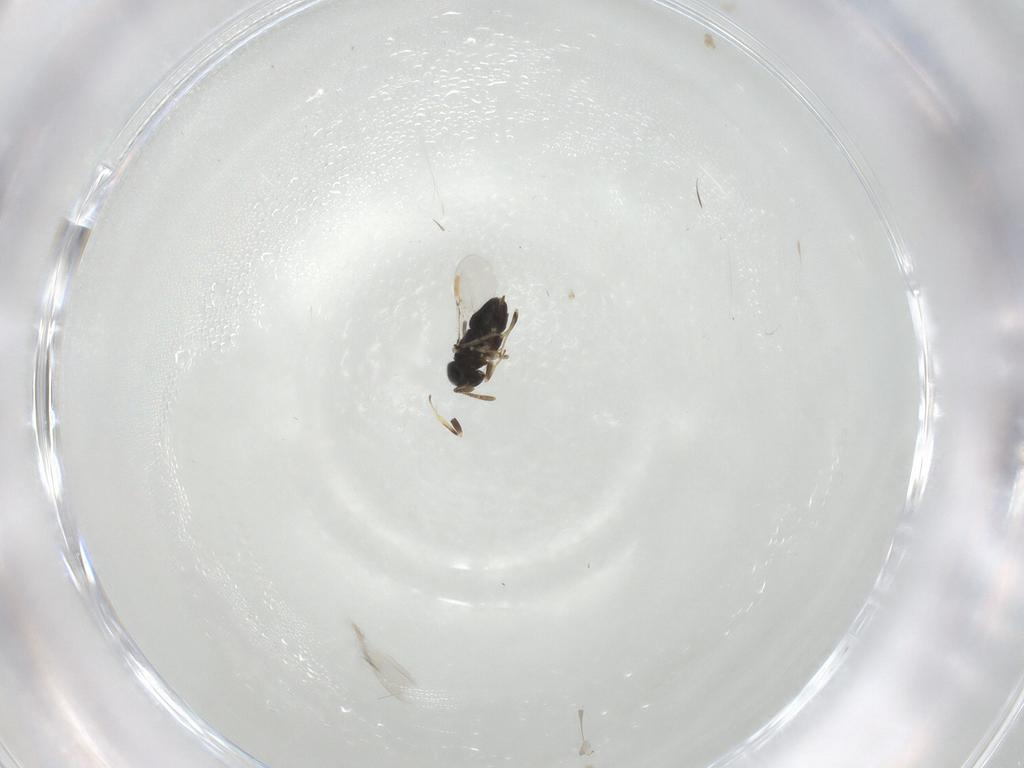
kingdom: Animalia
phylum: Arthropoda
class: Insecta
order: Hymenoptera
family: Encyrtidae
